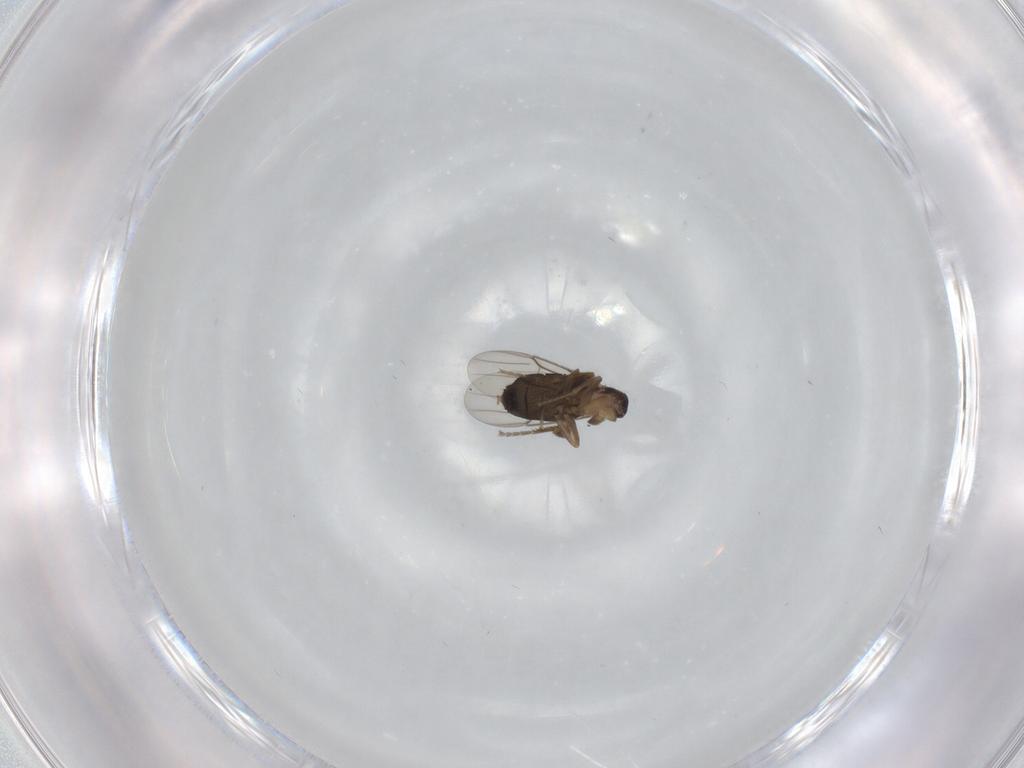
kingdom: Animalia
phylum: Arthropoda
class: Insecta
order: Diptera
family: Phoridae
